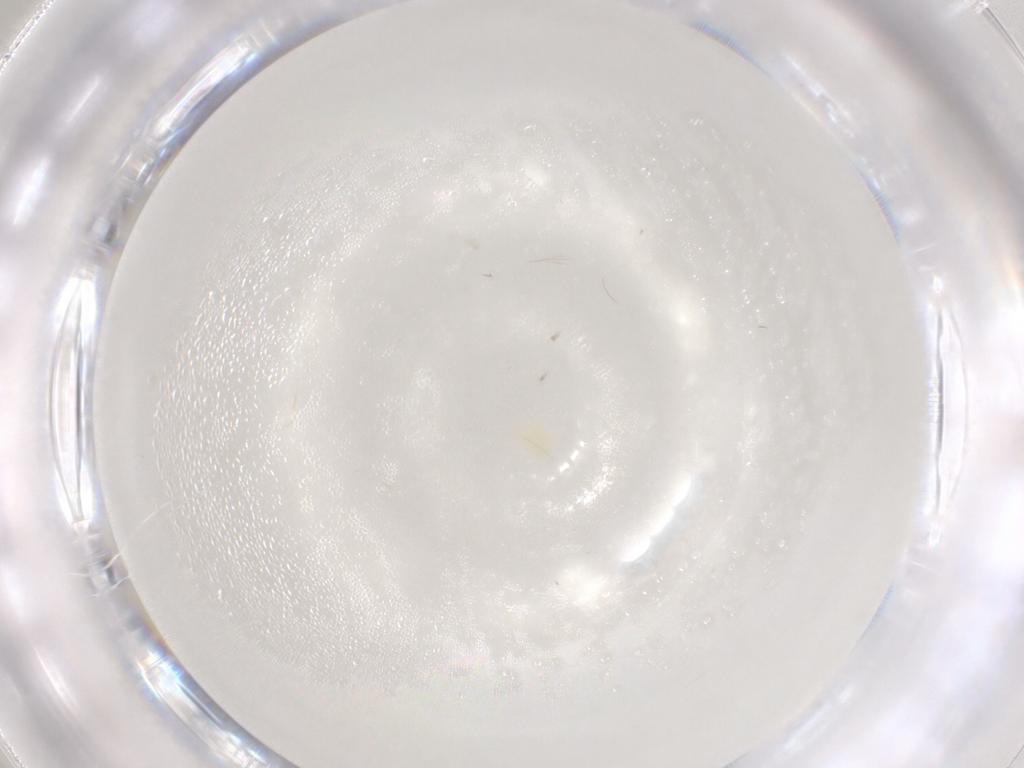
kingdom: Animalia
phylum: Arthropoda
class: Arachnida
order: Trombidiformes
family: Eupodidae
